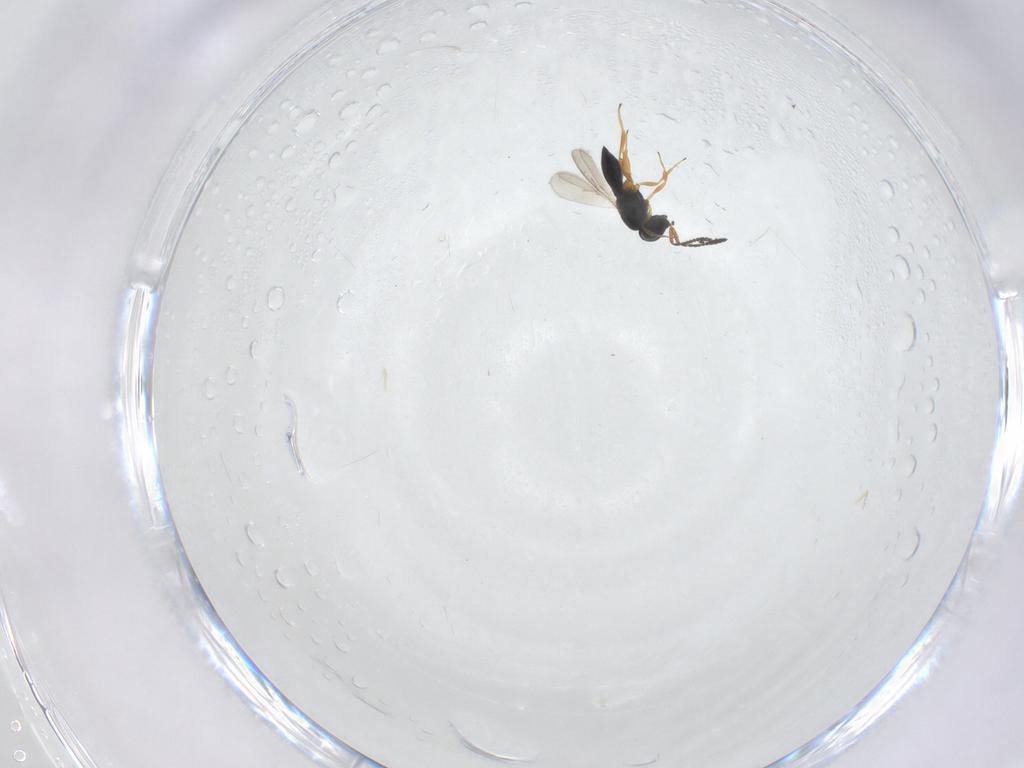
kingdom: Animalia
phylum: Arthropoda
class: Insecta
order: Hymenoptera
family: Scelionidae
